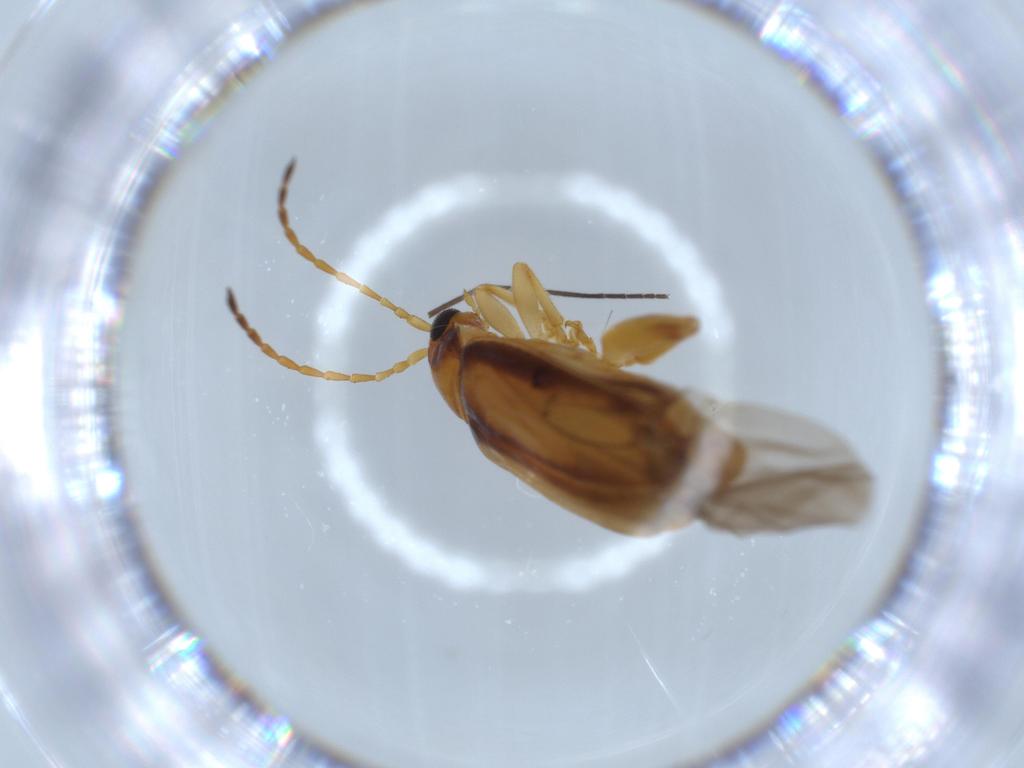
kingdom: Animalia
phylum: Arthropoda
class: Insecta
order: Coleoptera
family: Chrysomelidae
